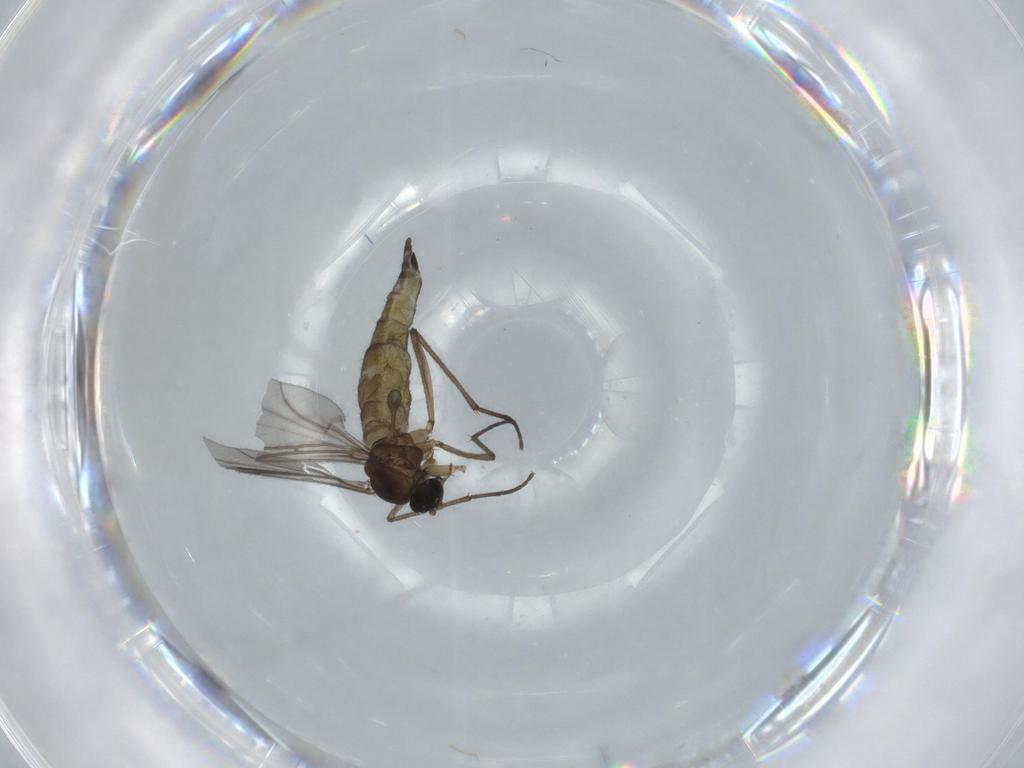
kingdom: Animalia
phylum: Arthropoda
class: Insecta
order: Diptera
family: Sciaridae
